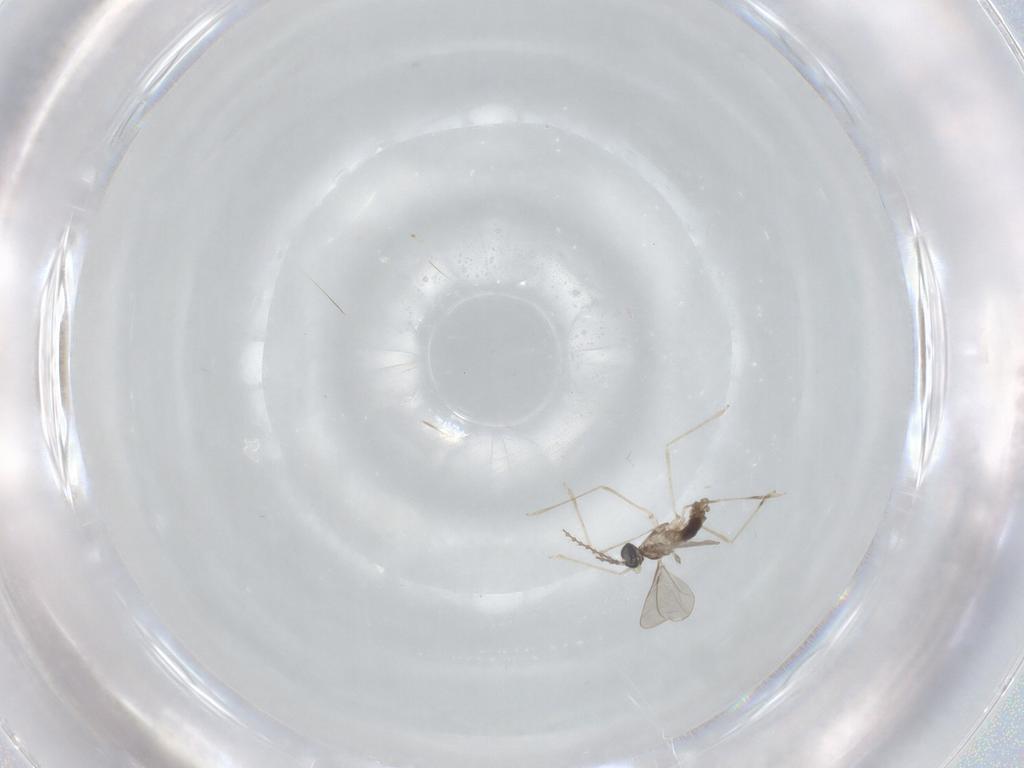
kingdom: Animalia
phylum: Arthropoda
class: Insecta
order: Diptera
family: Cecidomyiidae
